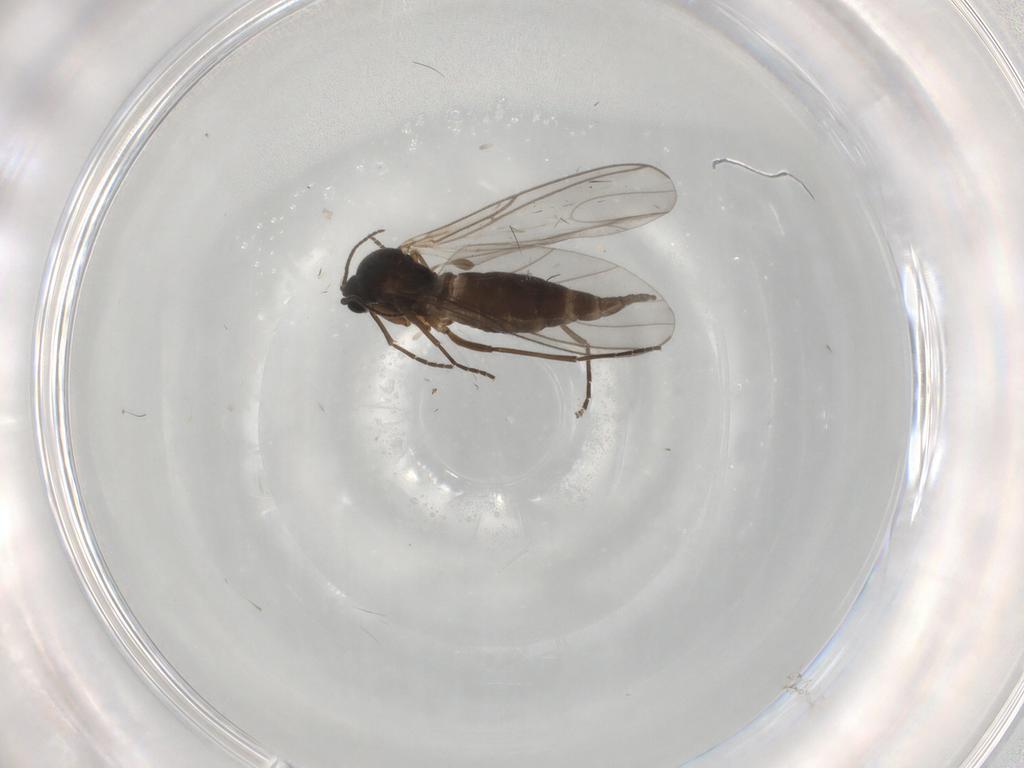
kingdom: Animalia
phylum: Arthropoda
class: Insecta
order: Diptera
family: Sciaridae
